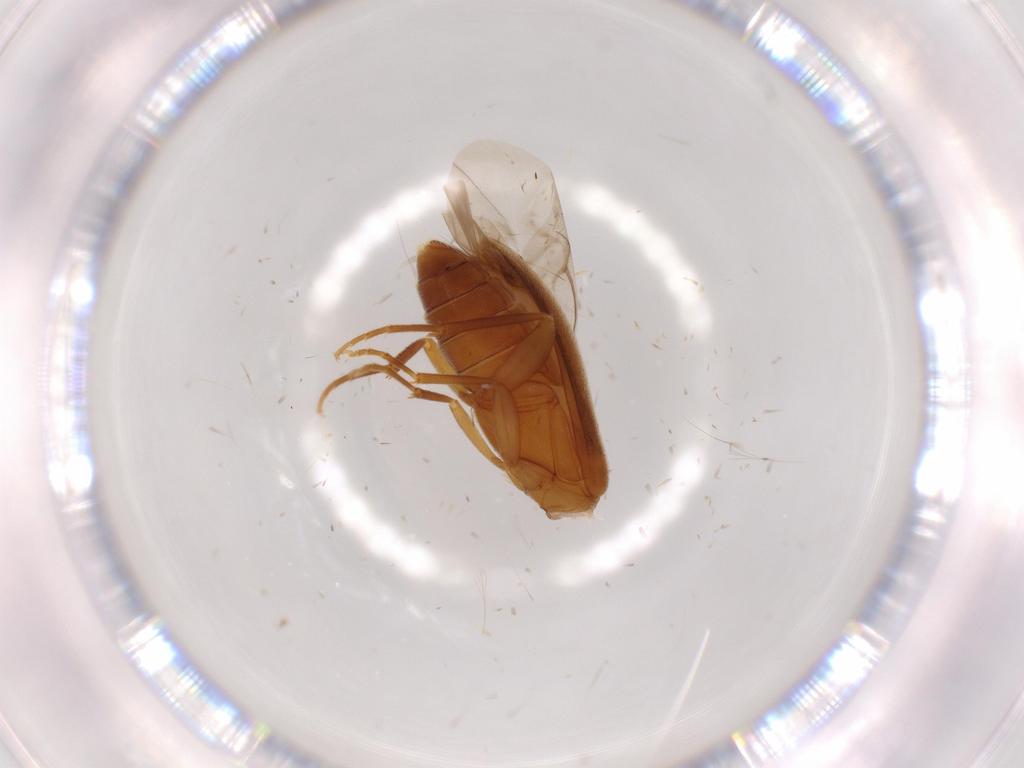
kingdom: Animalia
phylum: Arthropoda
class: Insecta
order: Coleoptera
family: Scraptiidae
